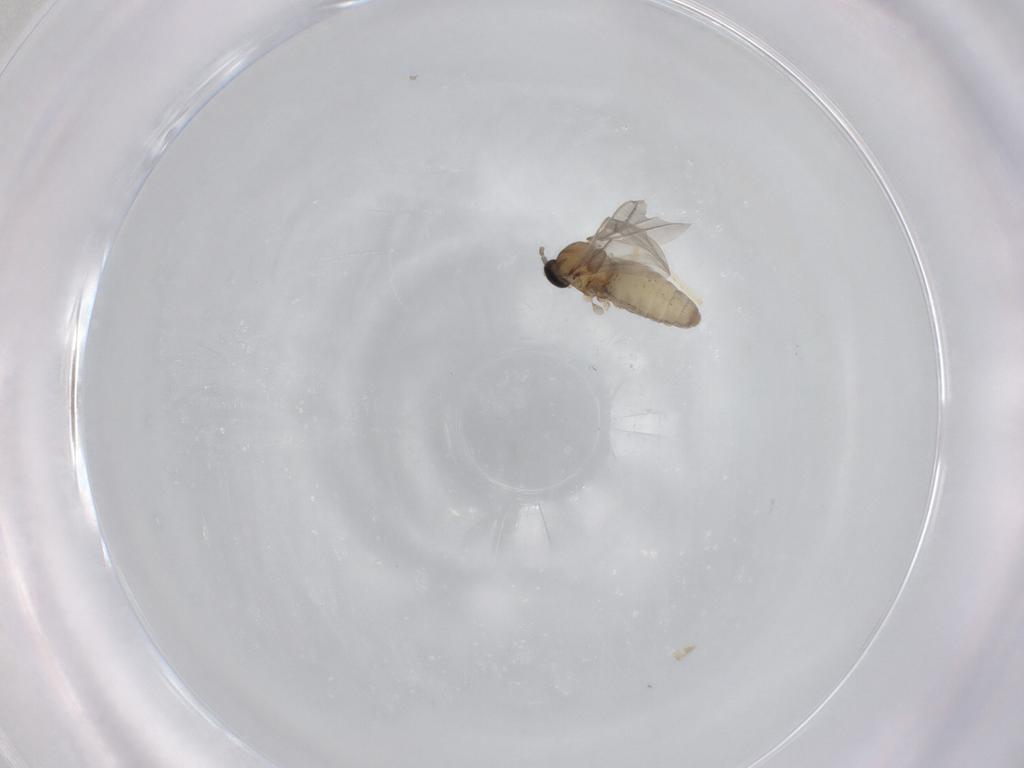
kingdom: Animalia
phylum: Arthropoda
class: Insecta
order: Diptera
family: Cecidomyiidae
